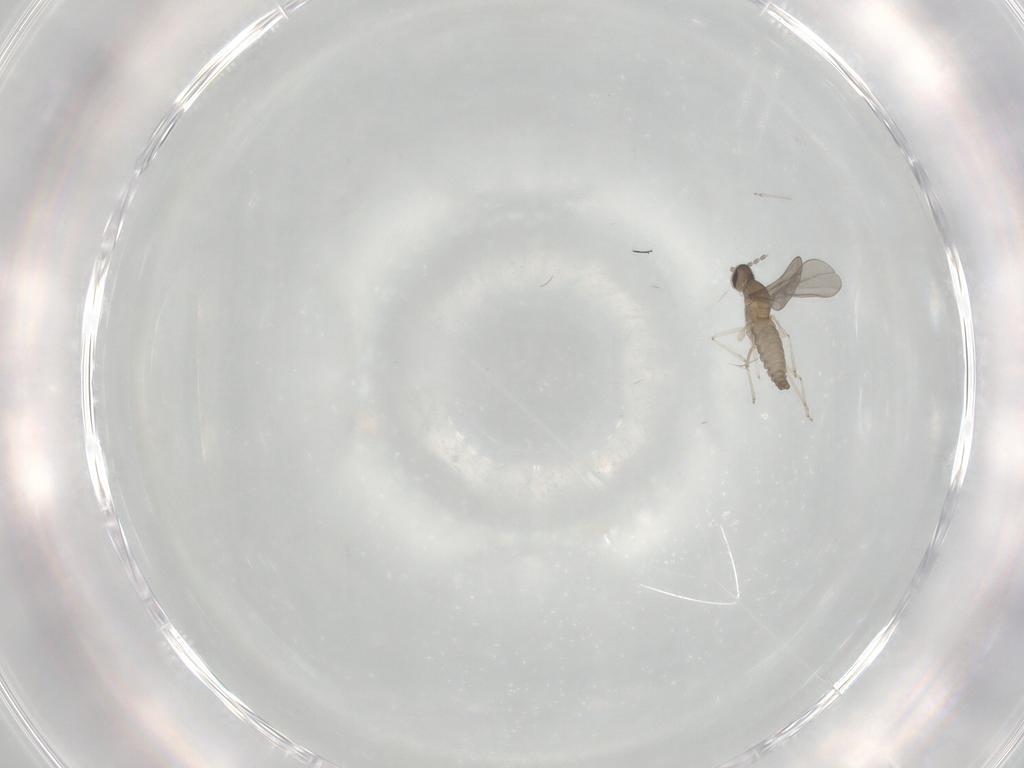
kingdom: Animalia
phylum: Arthropoda
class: Insecta
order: Diptera
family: Cecidomyiidae
